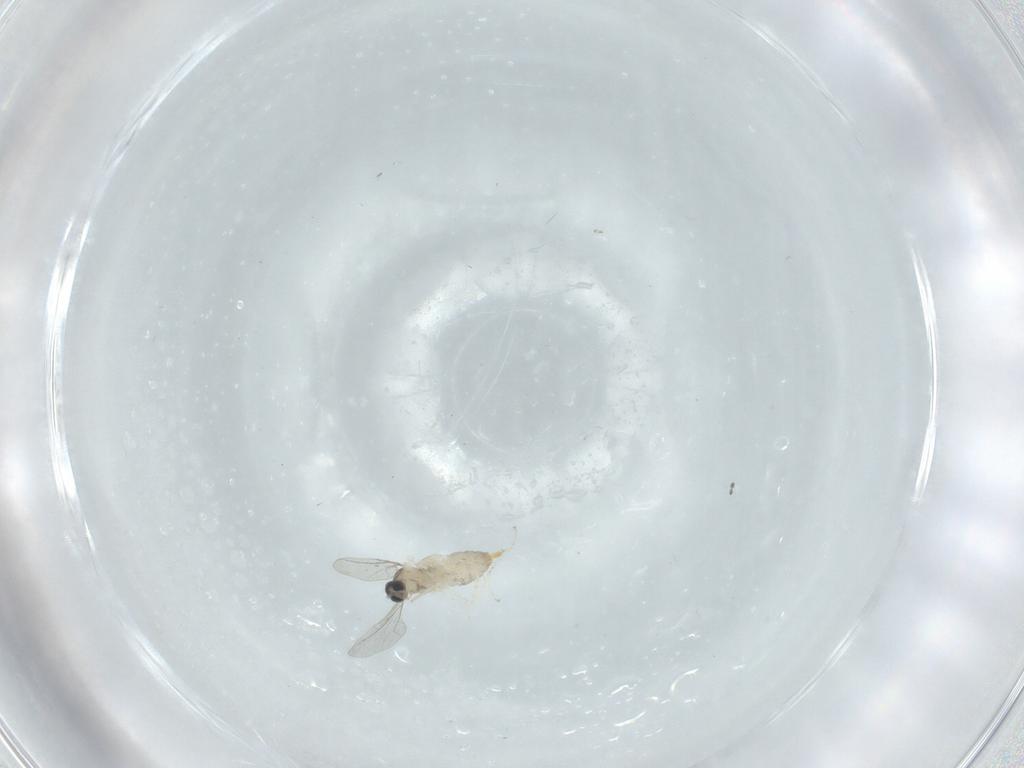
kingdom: Animalia
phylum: Arthropoda
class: Insecta
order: Diptera
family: Cecidomyiidae
